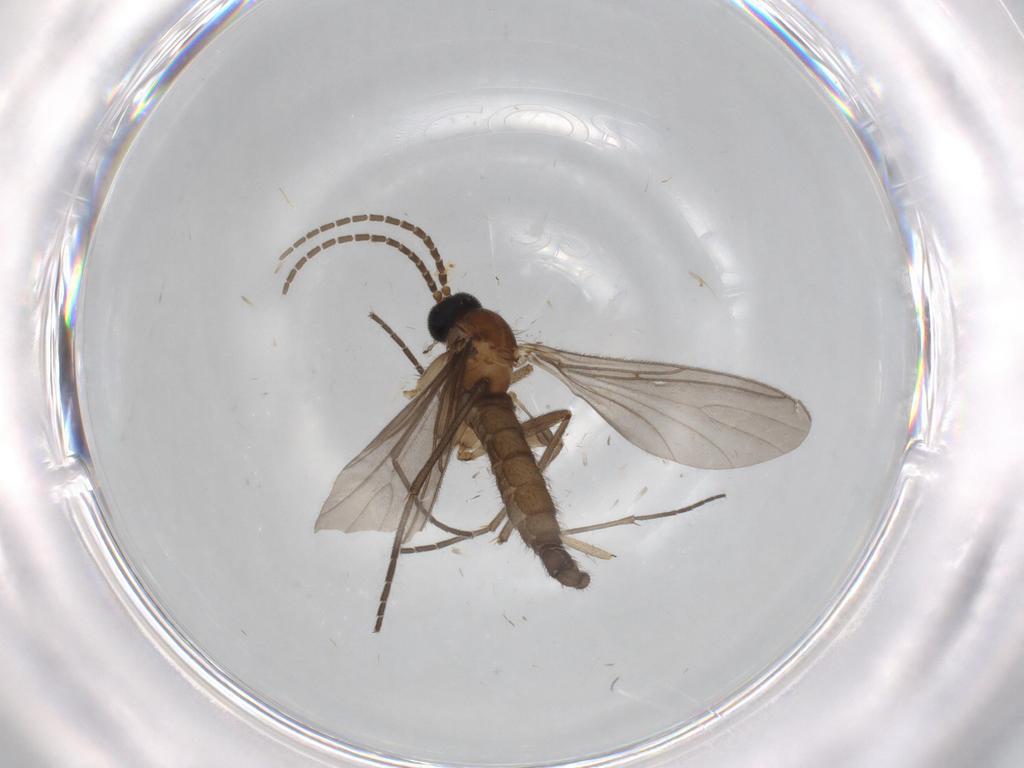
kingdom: Animalia
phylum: Arthropoda
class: Insecta
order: Diptera
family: Sciaridae
